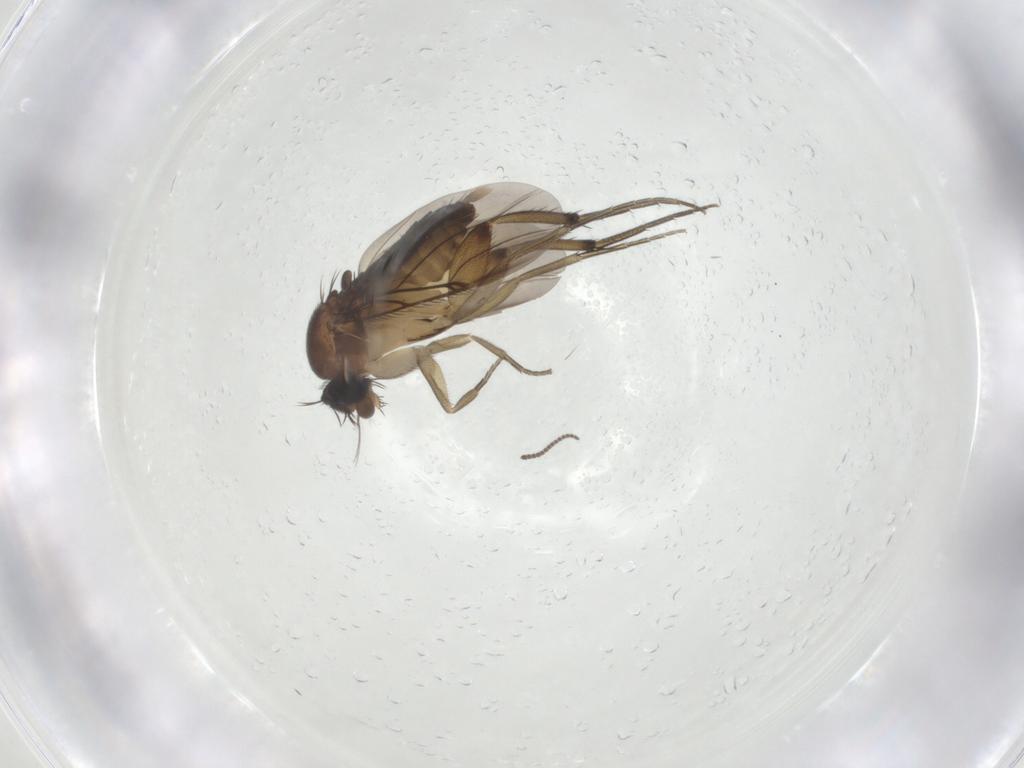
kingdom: Animalia
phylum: Arthropoda
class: Insecta
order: Diptera
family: Phoridae
